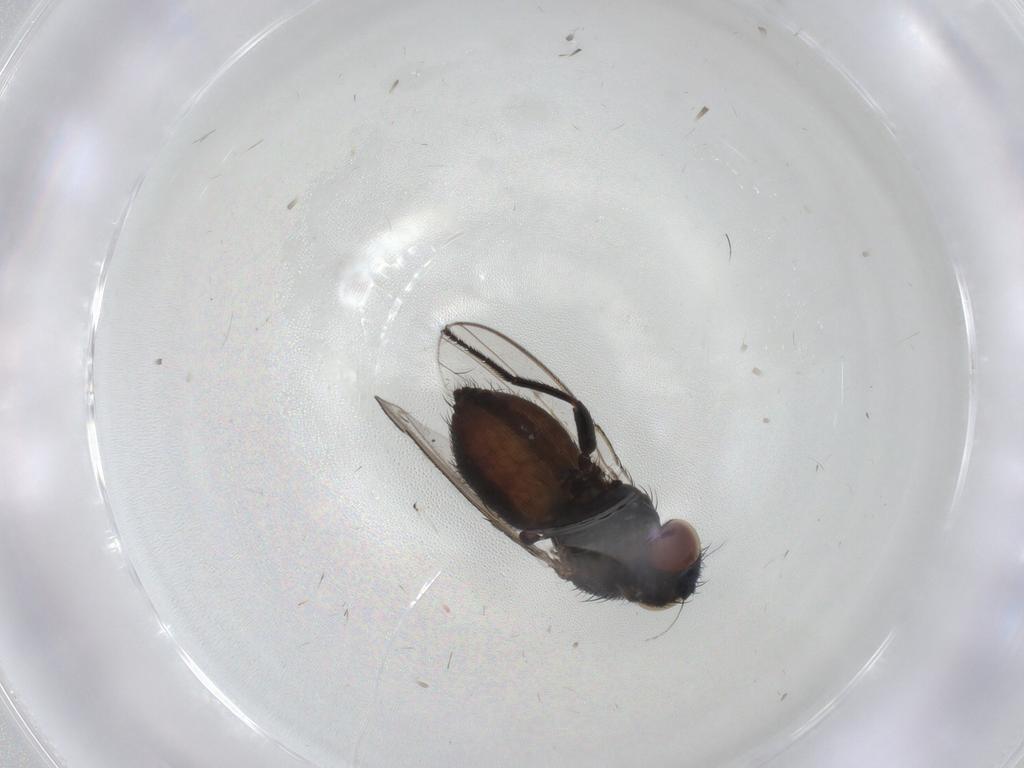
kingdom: Animalia
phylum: Arthropoda
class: Insecta
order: Diptera
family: Milichiidae
